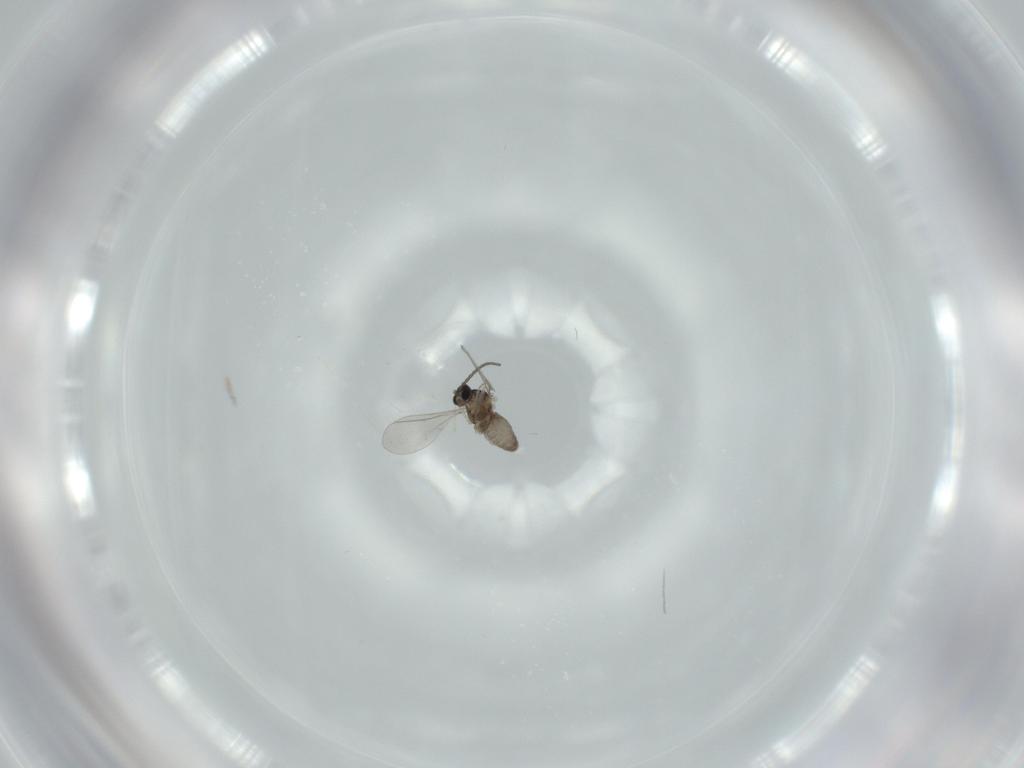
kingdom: Animalia
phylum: Arthropoda
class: Insecta
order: Diptera
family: Cecidomyiidae
